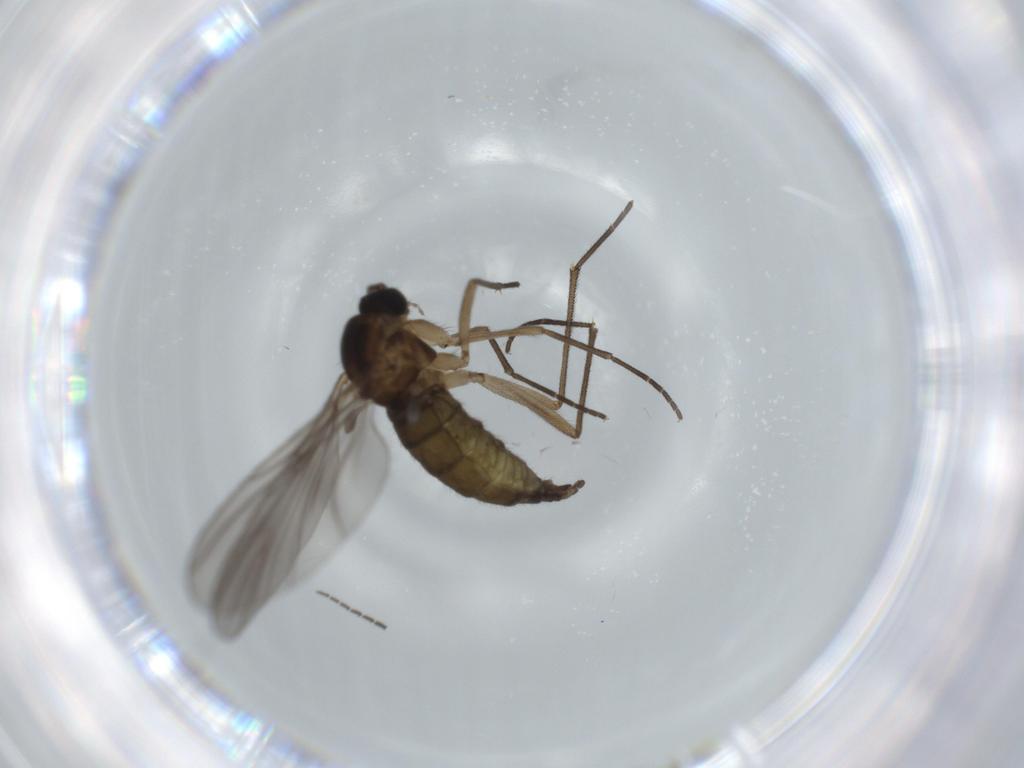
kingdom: Animalia
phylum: Arthropoda
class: Insecta
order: Diptera
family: Sciaridae
